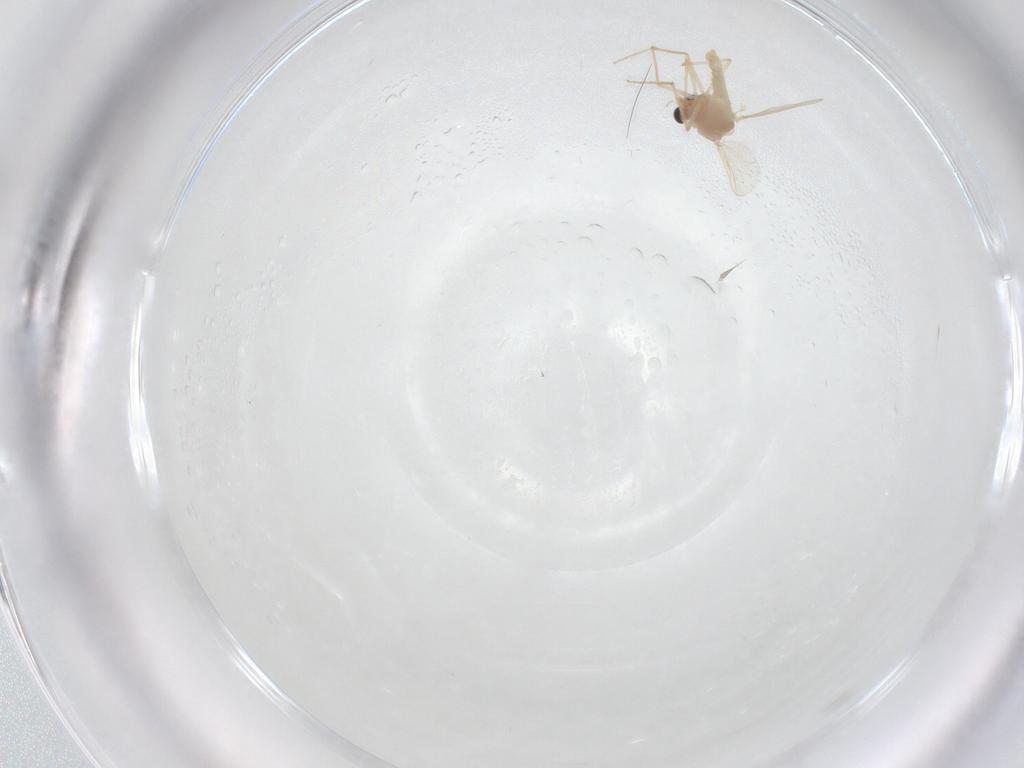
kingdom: Animalia
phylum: Arthropoda
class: Insecta
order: Diptera
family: Chironomidae
